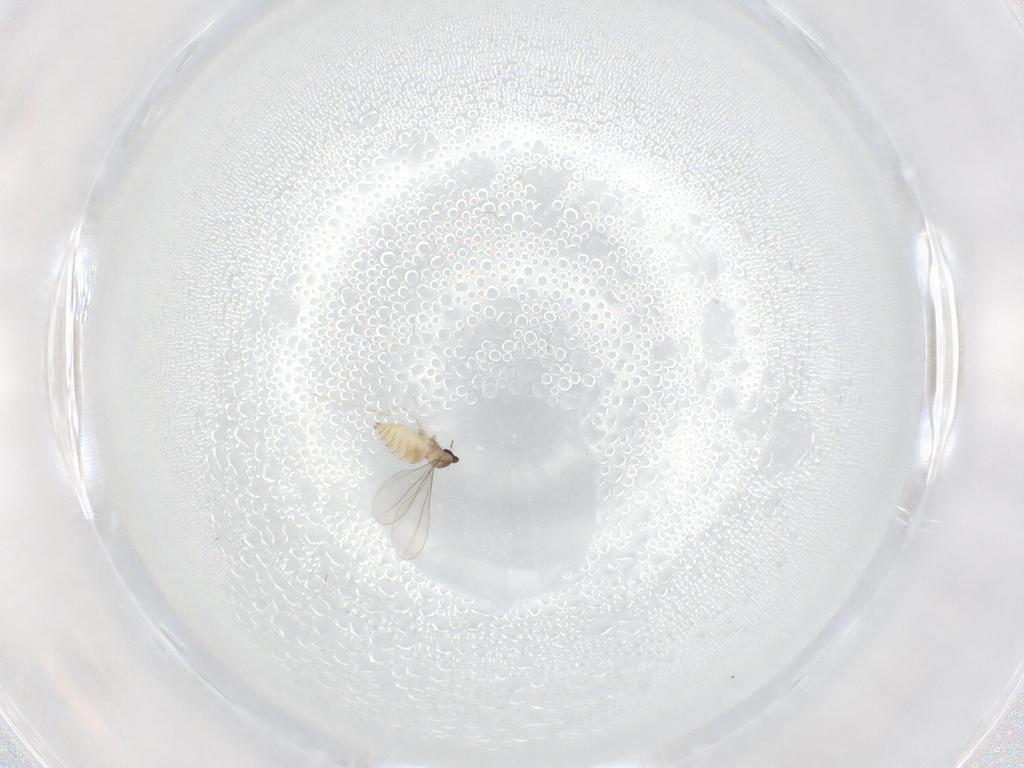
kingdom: Animalia
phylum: Arthropoda
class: Insecta
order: Diptera
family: Cecidomyiidae
